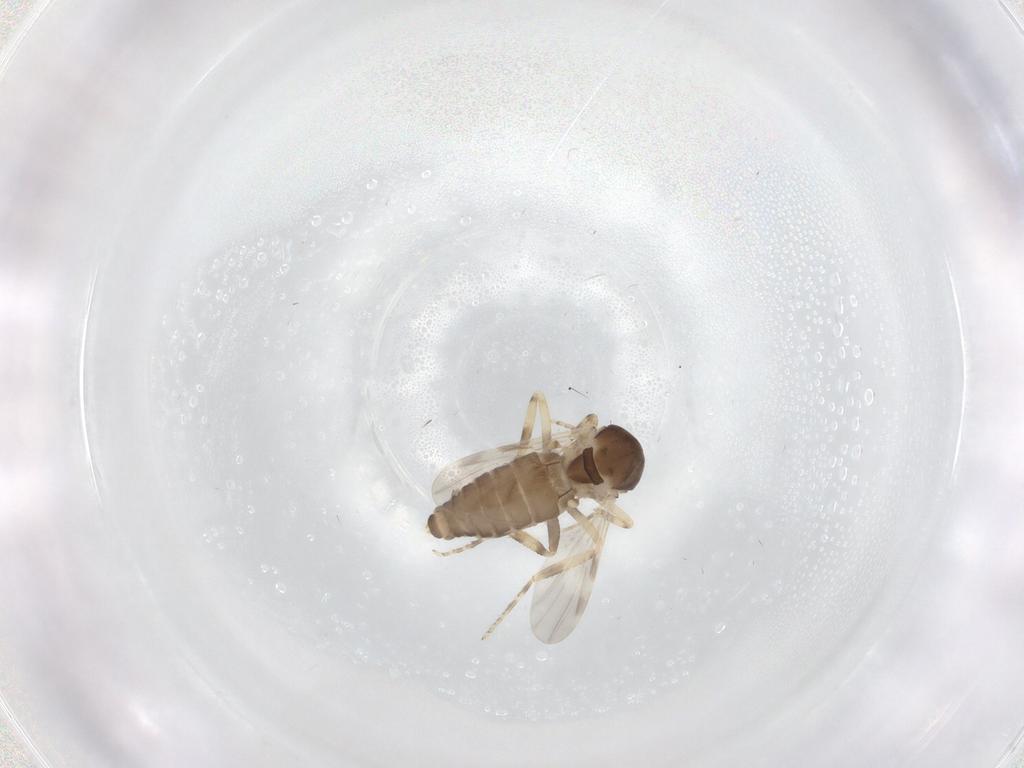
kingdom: Animalia
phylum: Arthropoda
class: Insecta
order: Diptera
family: Ceratopogonidae
